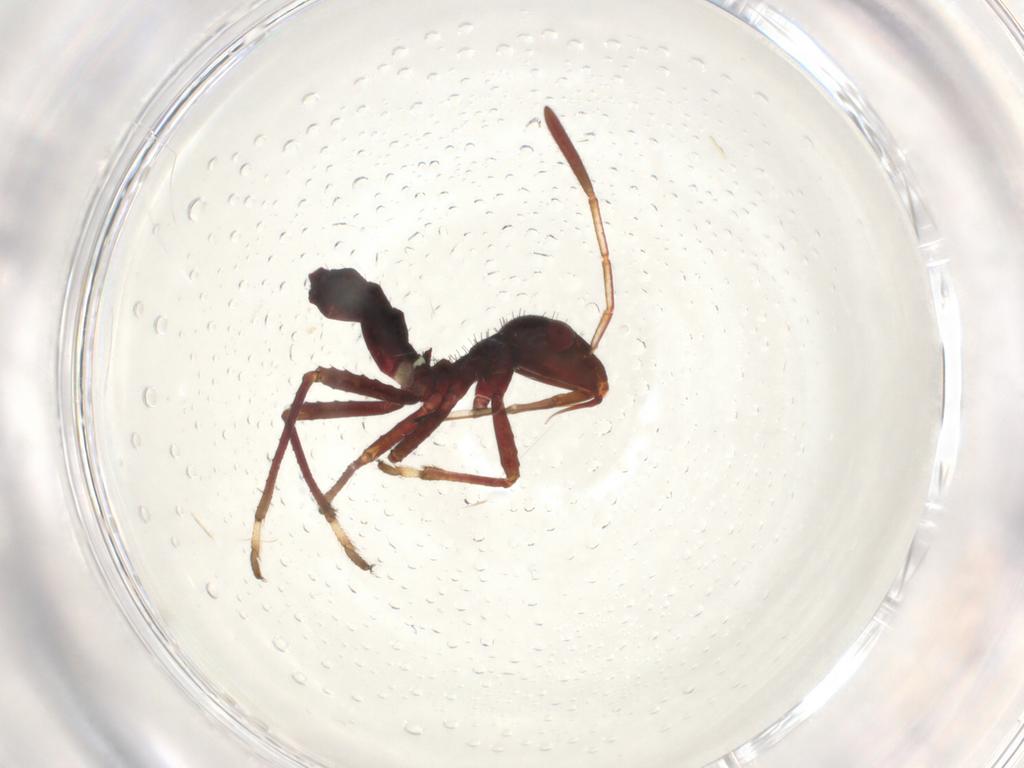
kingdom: Animalia
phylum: Arthropoda
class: Insecta
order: Hemiptera
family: Alydidae
